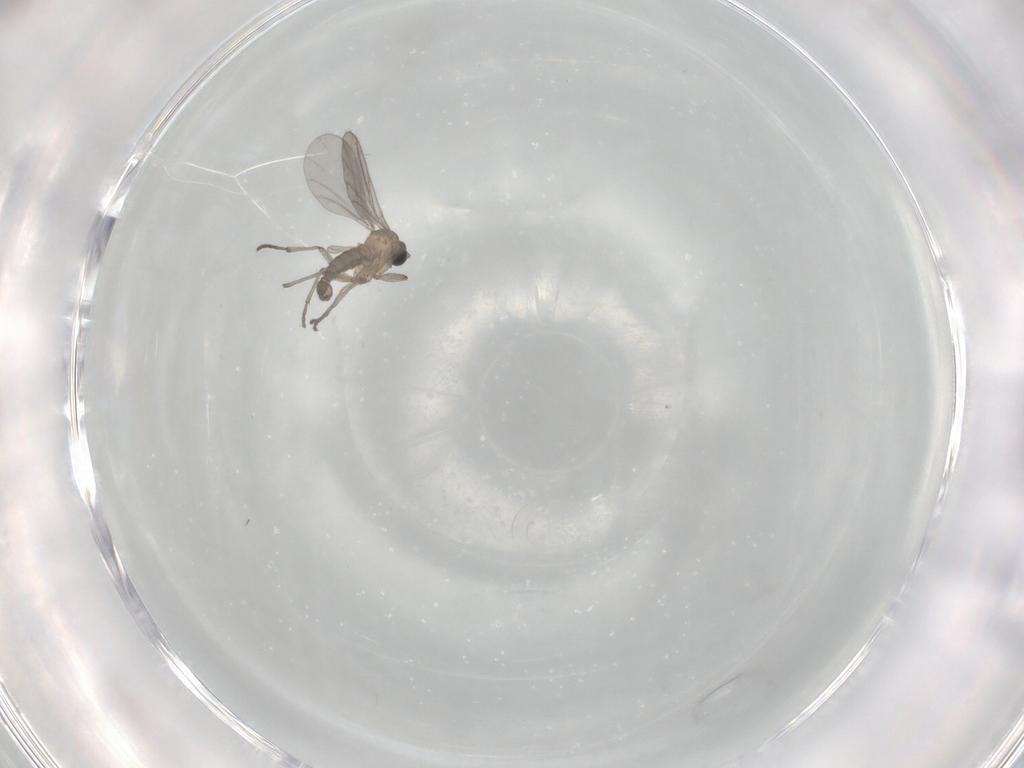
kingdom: Animalia
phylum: Arthropoda
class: Insecta
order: Diptera
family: Sciaridae
